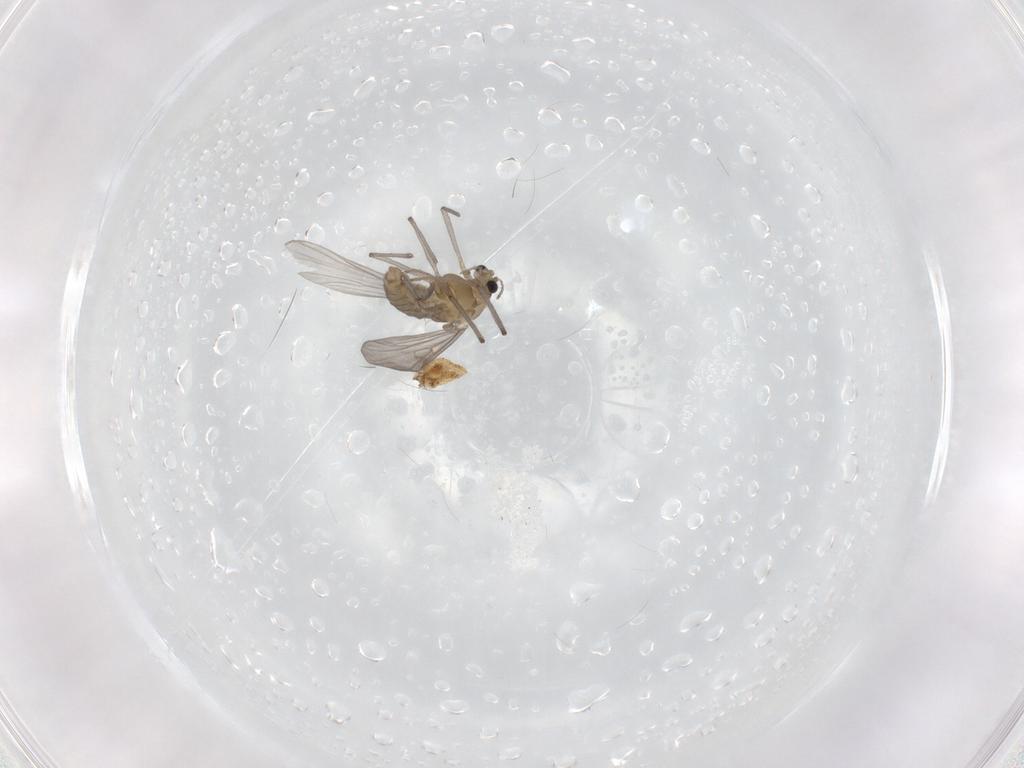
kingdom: Animalia
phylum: Arthropoda
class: Insecta
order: Diptera
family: Chironomidae
